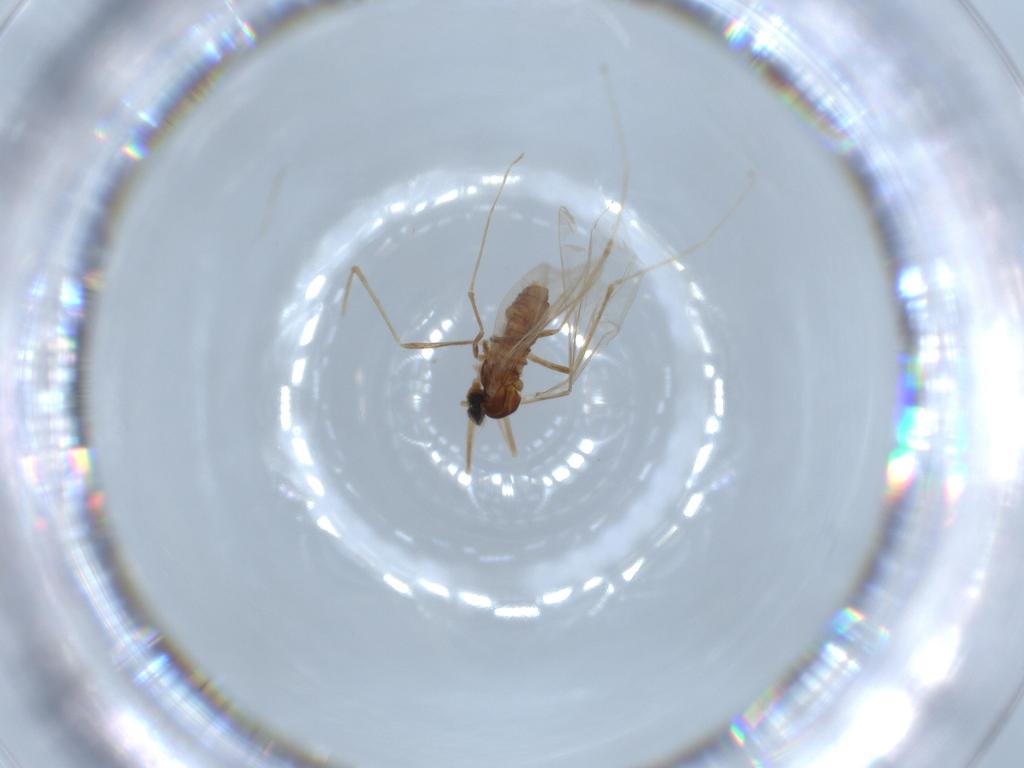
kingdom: Animalia
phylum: Arthropoda
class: Insecta
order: Diptera
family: Cecidomyiidae
